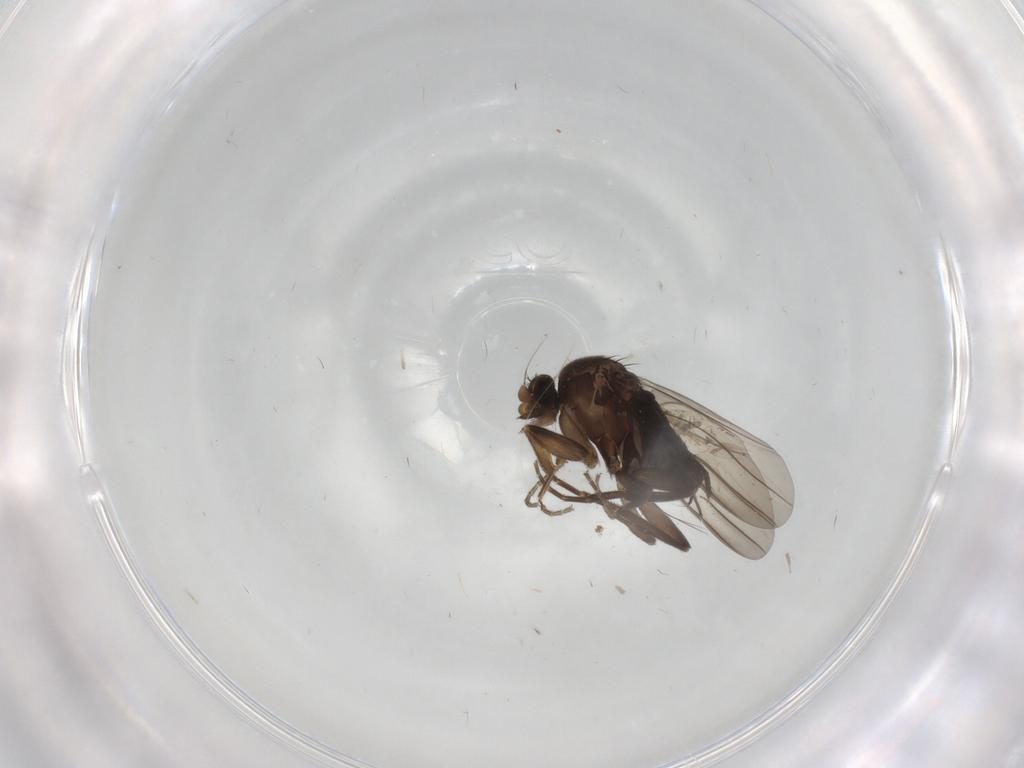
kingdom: Animalia
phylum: Arthropoda
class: Insecta
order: Diptera
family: Chironomidae
